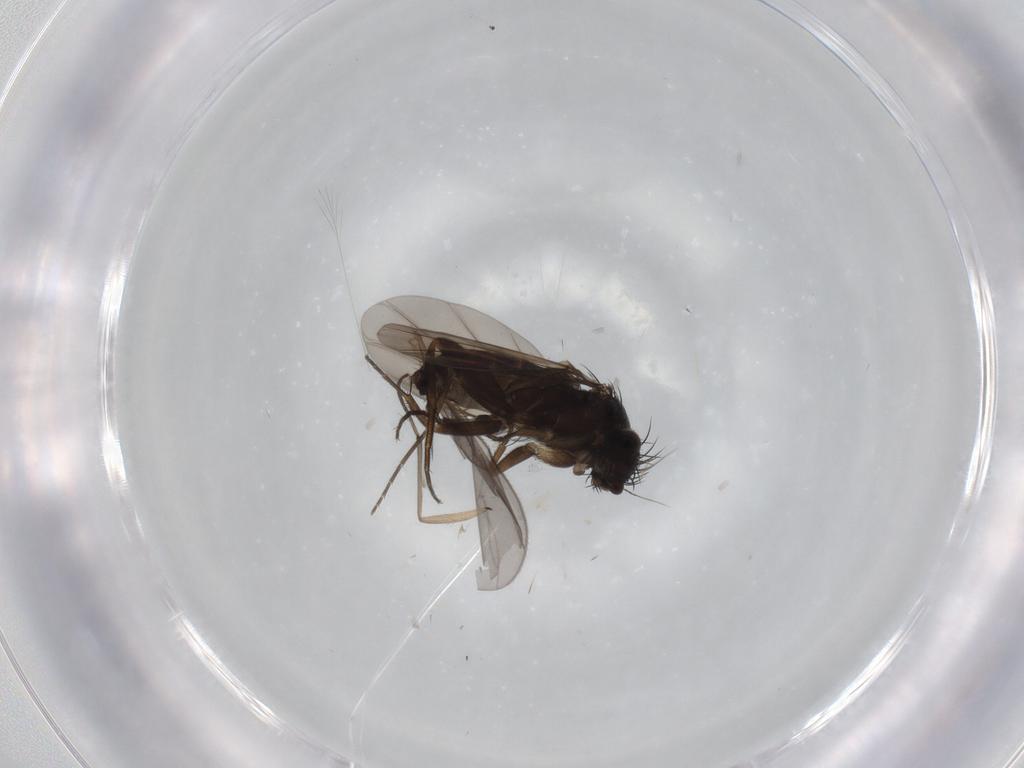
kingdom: Animalia
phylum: Arthropoda
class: Insecta
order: Diptera
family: Phoridae
